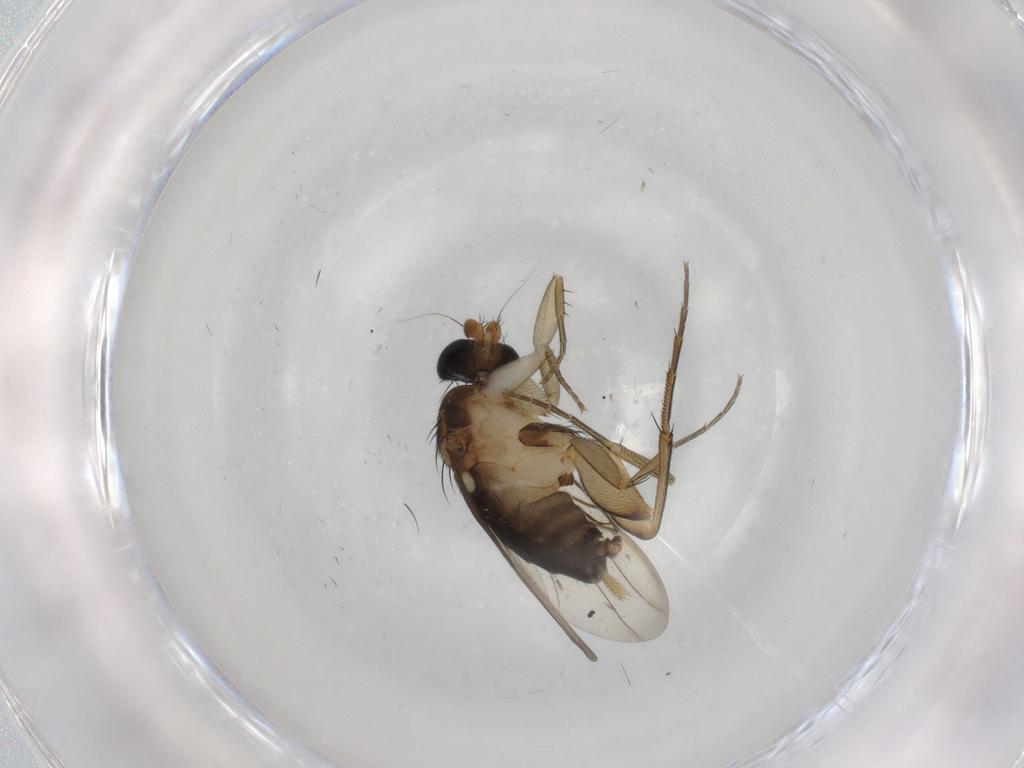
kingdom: Animalia
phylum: Arthropoda
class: Insecta
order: Diptera
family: Phoridae
